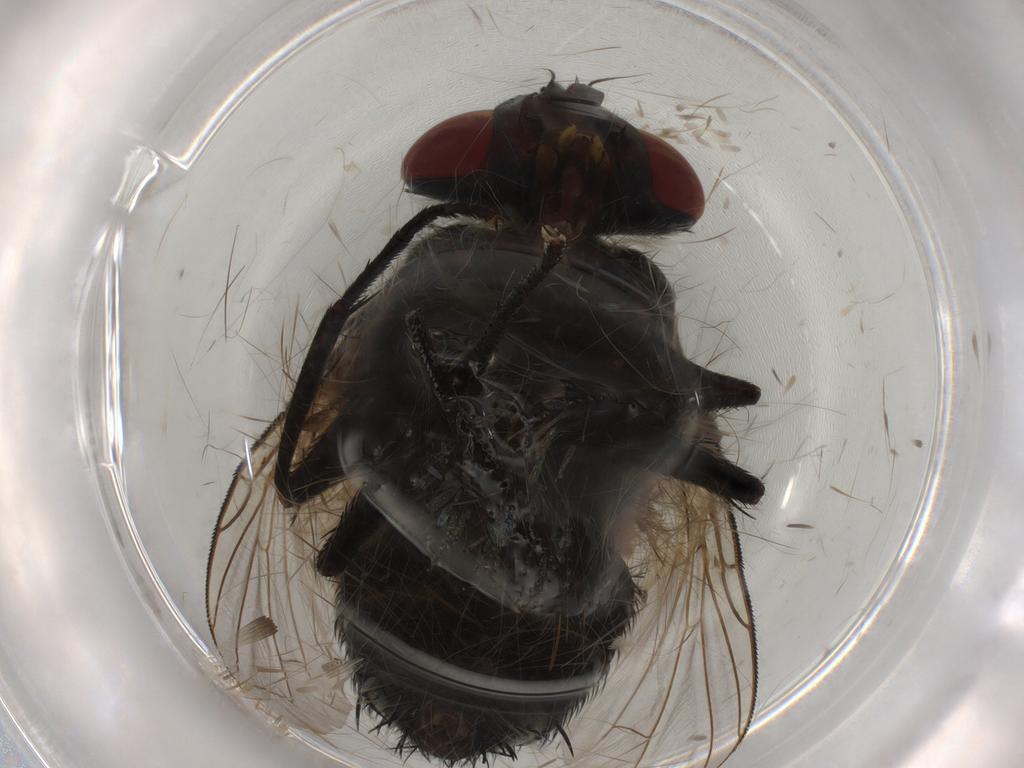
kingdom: Animalia
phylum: Arthropoda
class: Insecta
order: Diptera
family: Tachinidae
